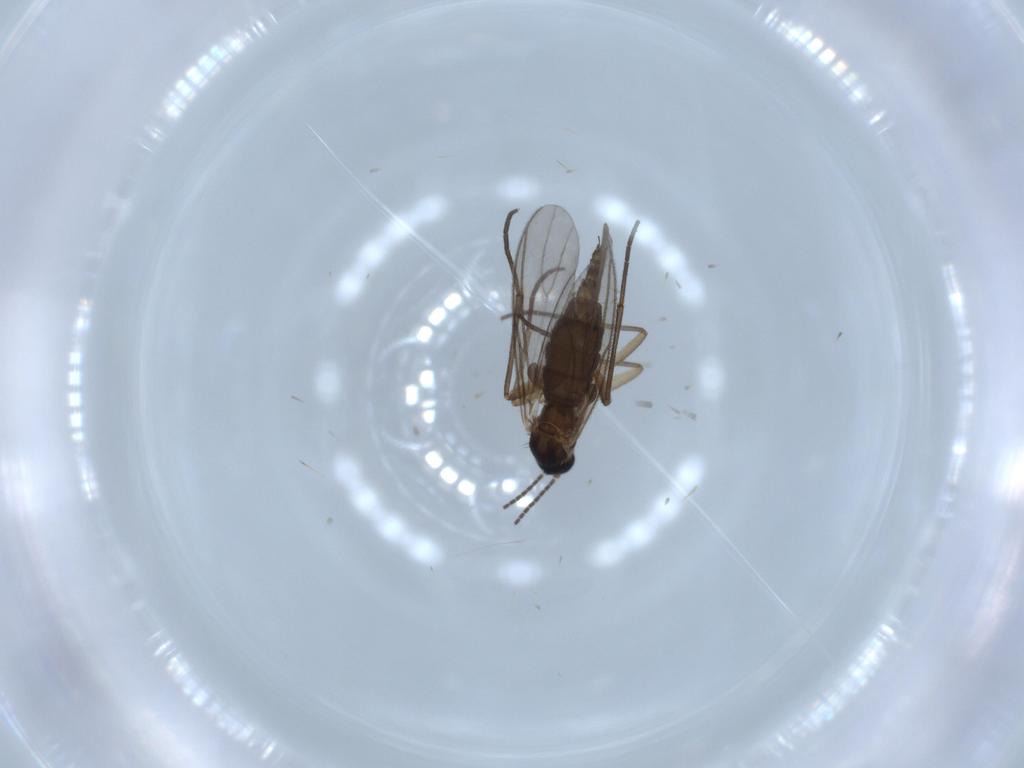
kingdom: Animalia
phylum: Arthropoda
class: Insecta
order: Diptera
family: Sciaridae
